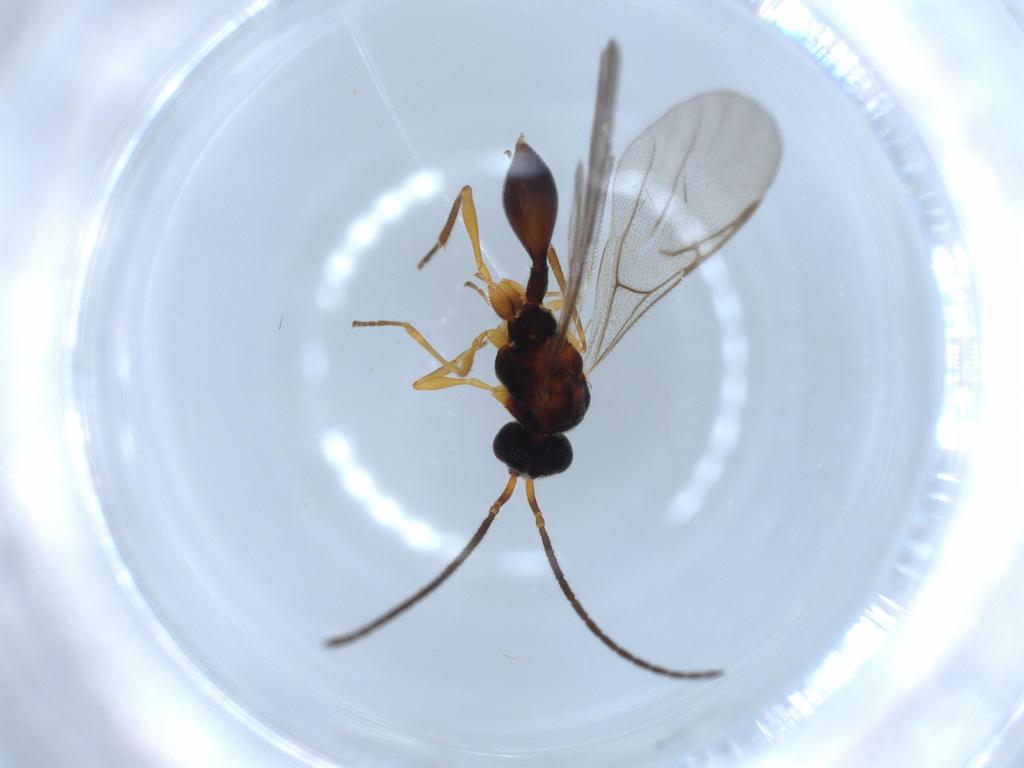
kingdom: Animalia
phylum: Arthropoda
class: Insecta
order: Hymenoptera
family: Diapriidae
